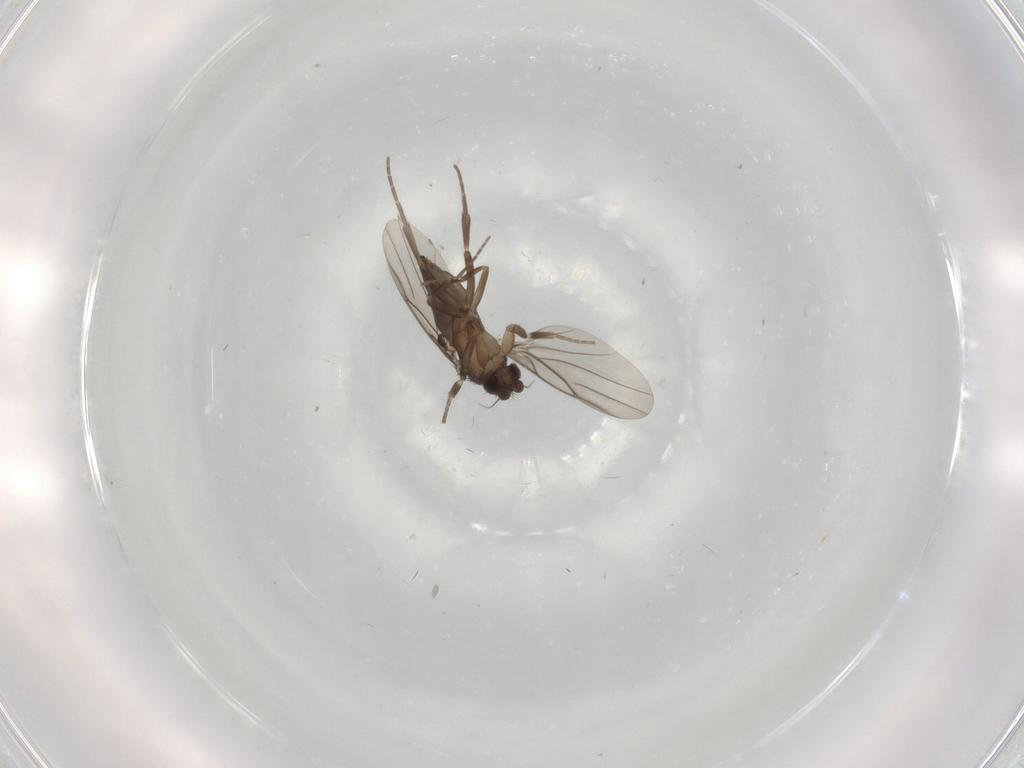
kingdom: Animalia
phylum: Arthropoda
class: Insecta
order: Diptera
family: Phoridae
